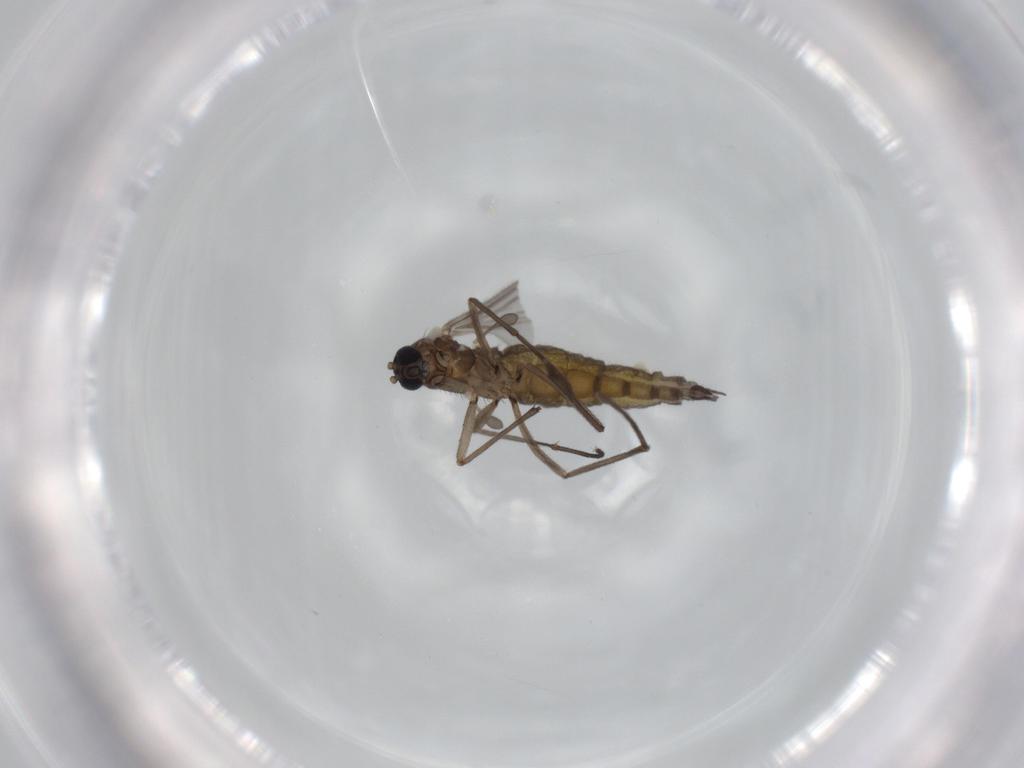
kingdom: Animalia
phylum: Arthropoda
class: Insecta
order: Diptera
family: Sciaridae
